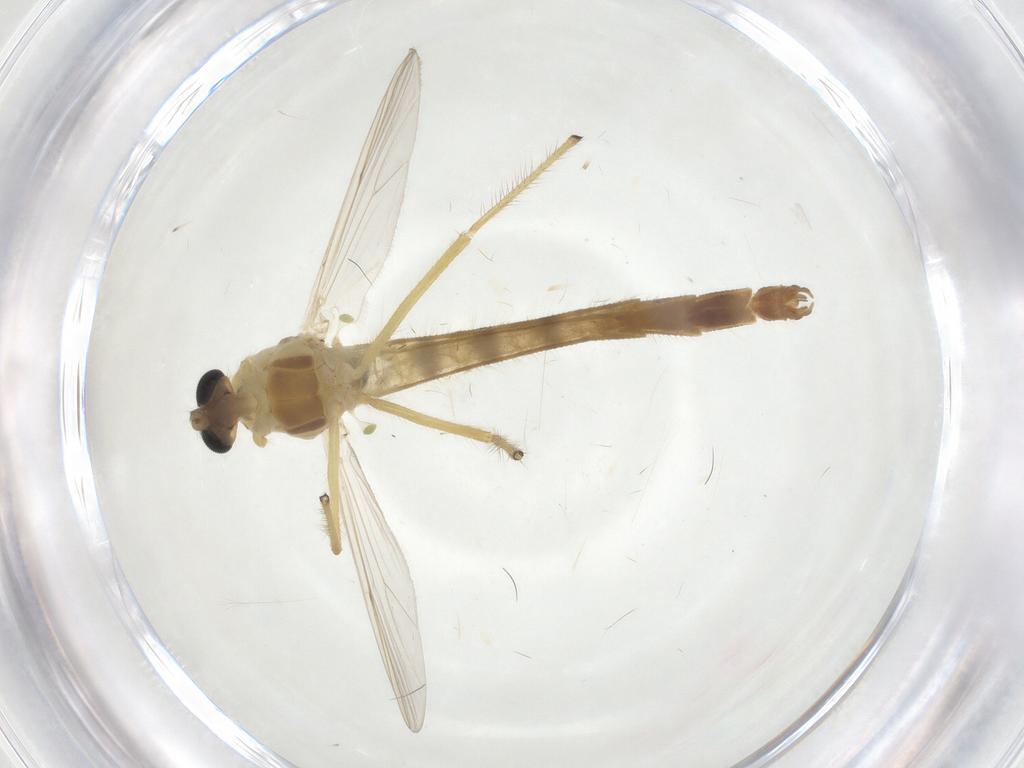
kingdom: Animalia
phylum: Arthropoda
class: Insecta
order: Diptera
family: Chironomidae
